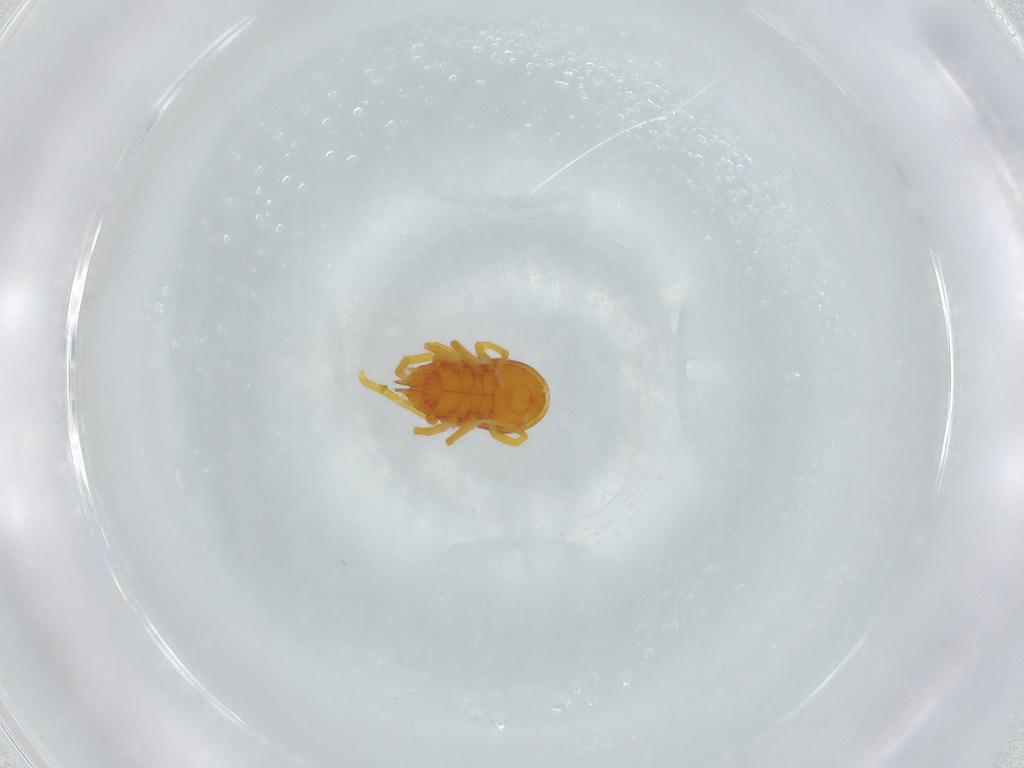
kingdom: Animalia
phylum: Arthropoda
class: Arachnida
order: Trombidiformes
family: Labidostommidae
